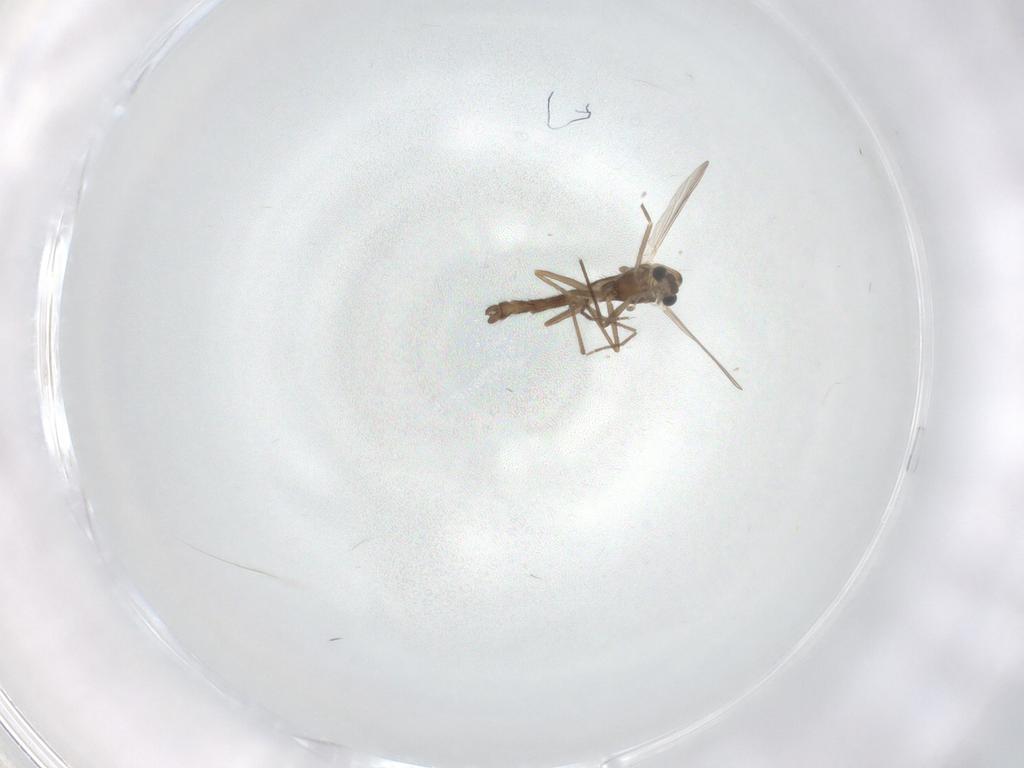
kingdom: Animalia
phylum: Arthropoda
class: Insecta
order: Diptera
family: Chironomidae
